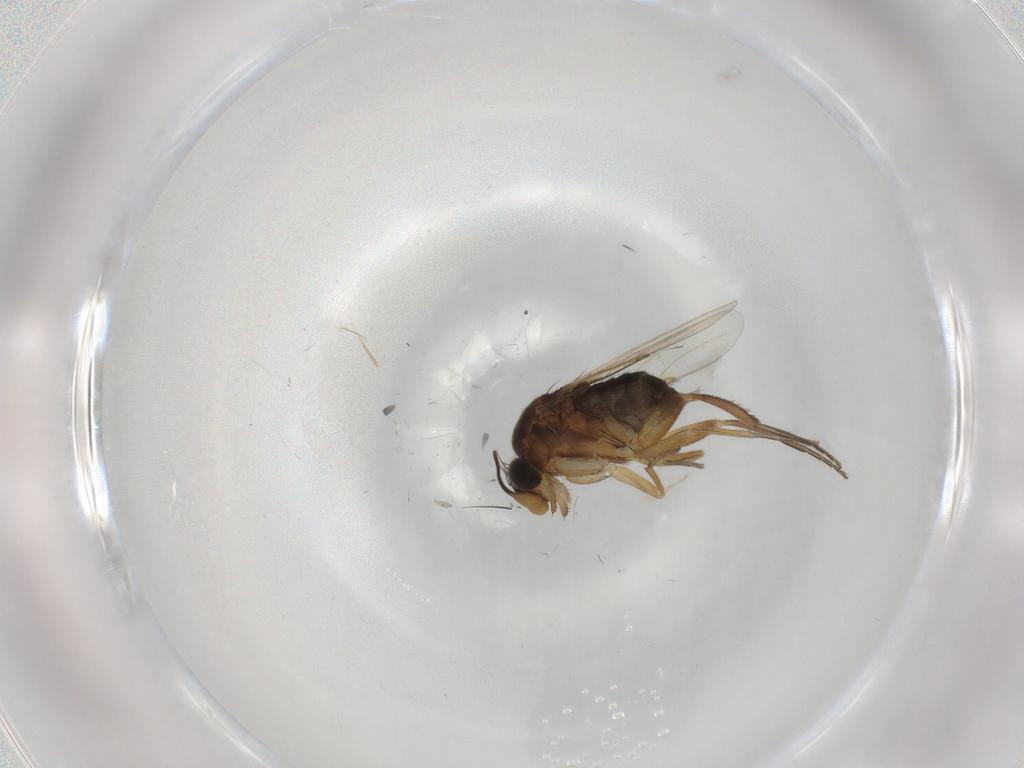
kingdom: Animalia
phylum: Arthropoda
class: Insecta
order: Diptera
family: Phoridae
